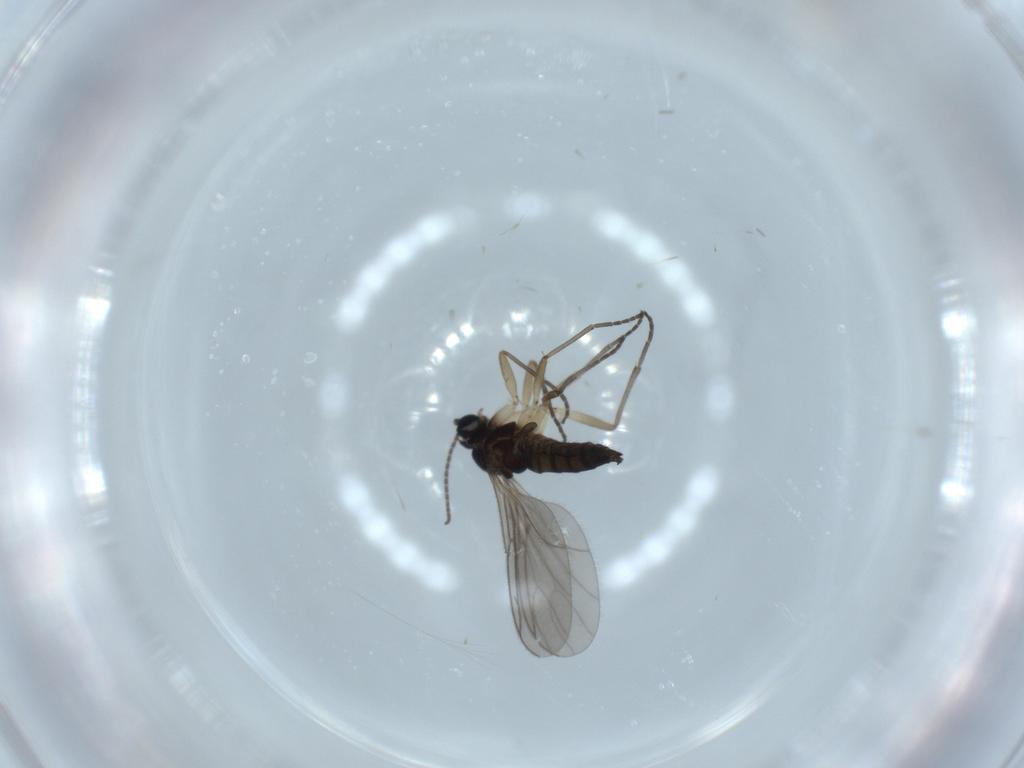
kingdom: Animalia
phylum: Arthropoda
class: Insecta
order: Diptera
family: Sciaridae
